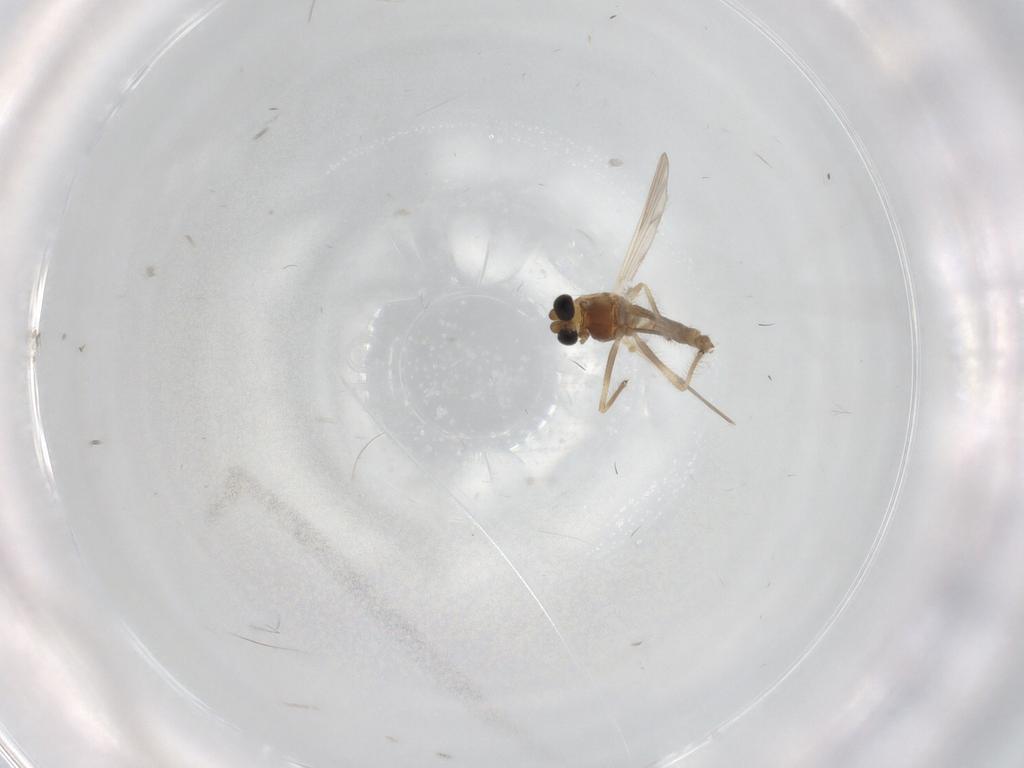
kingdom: Animalia
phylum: Arthropoda
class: Insecta
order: Diptera
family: Chironomidae
